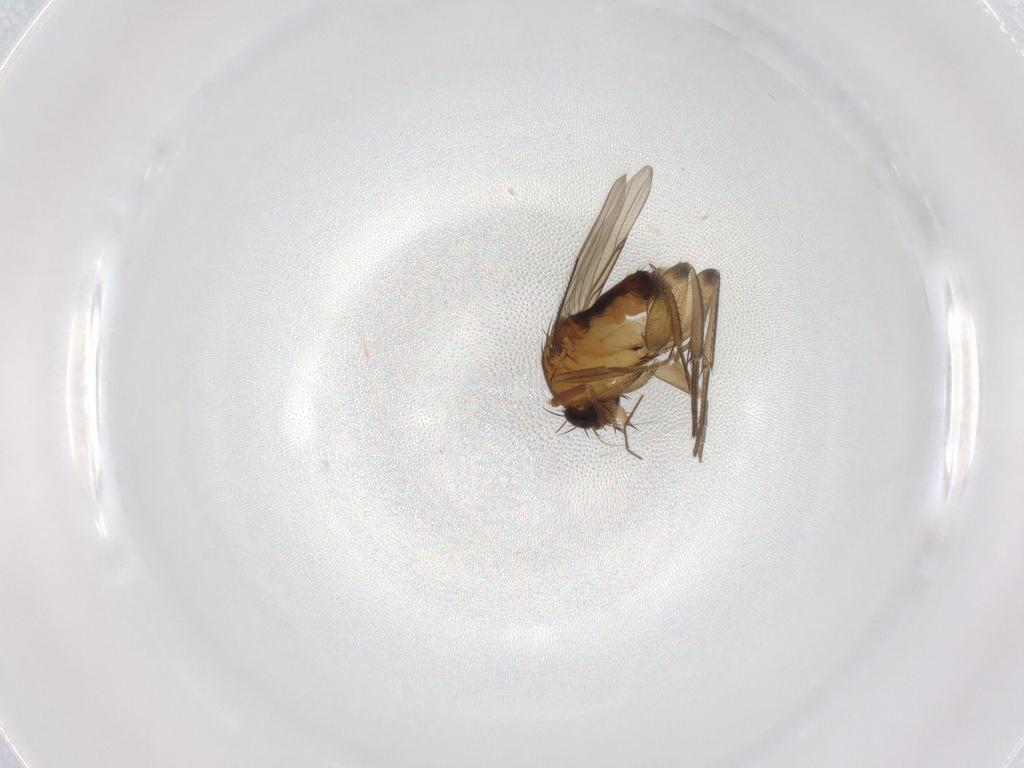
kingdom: Animalia
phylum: Arthropoda
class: Insecta
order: Diptera
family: Phoridae
